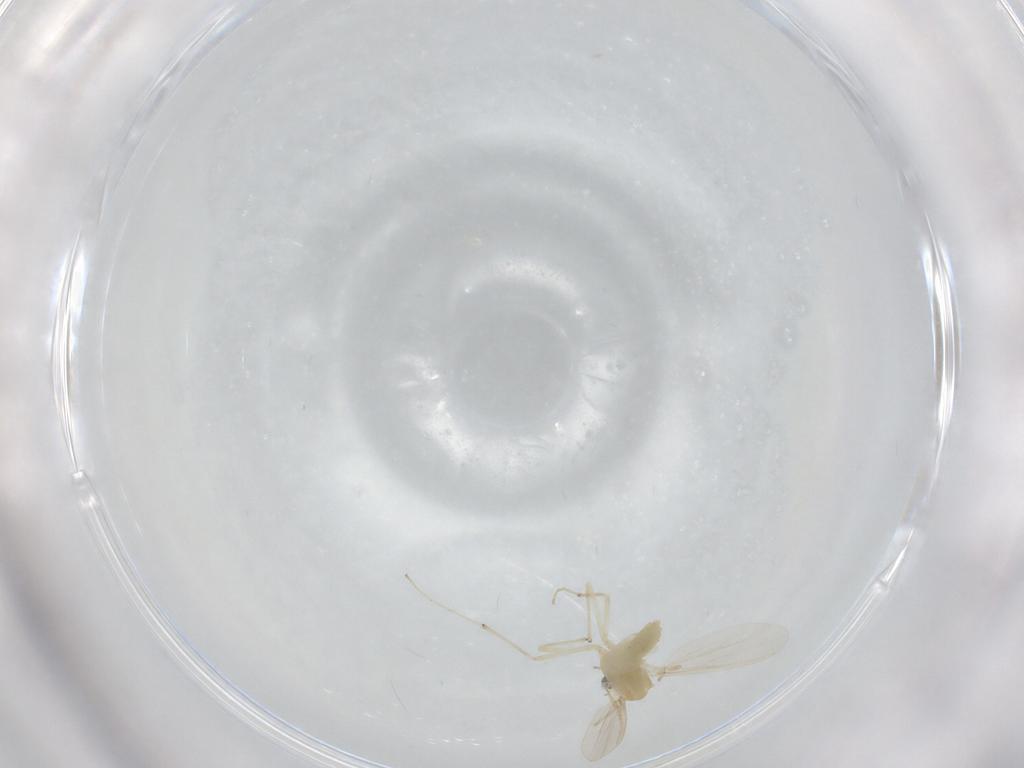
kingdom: Animalia
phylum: Arthropoda
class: Insecta
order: Diptera
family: Chironomidae
